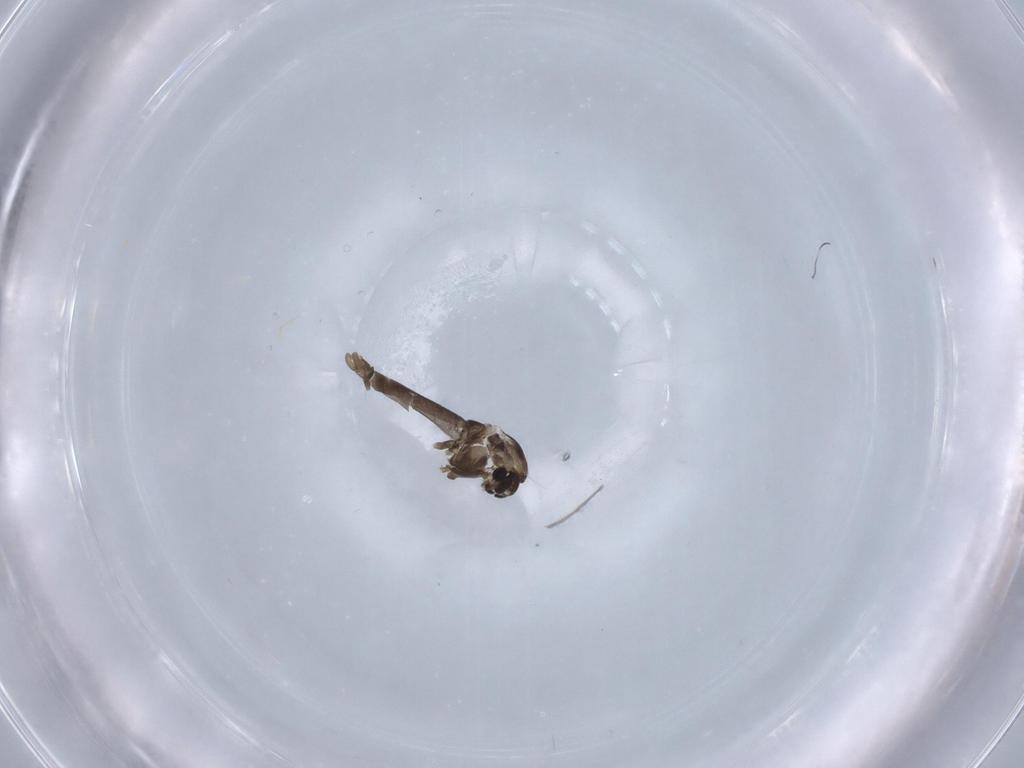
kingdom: Animalia
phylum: Arthropoda
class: Insecta
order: Diptera
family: Chironomidae
